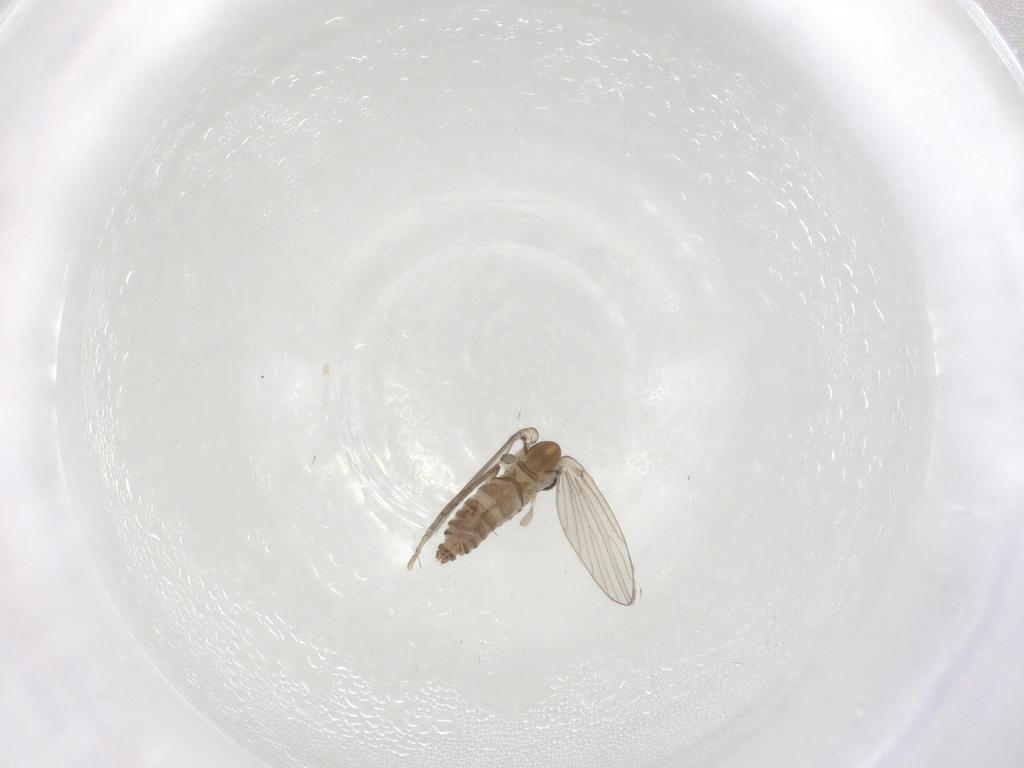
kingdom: Animalia
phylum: Arthropoda
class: Insecta
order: Diptera
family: Psychodidae
